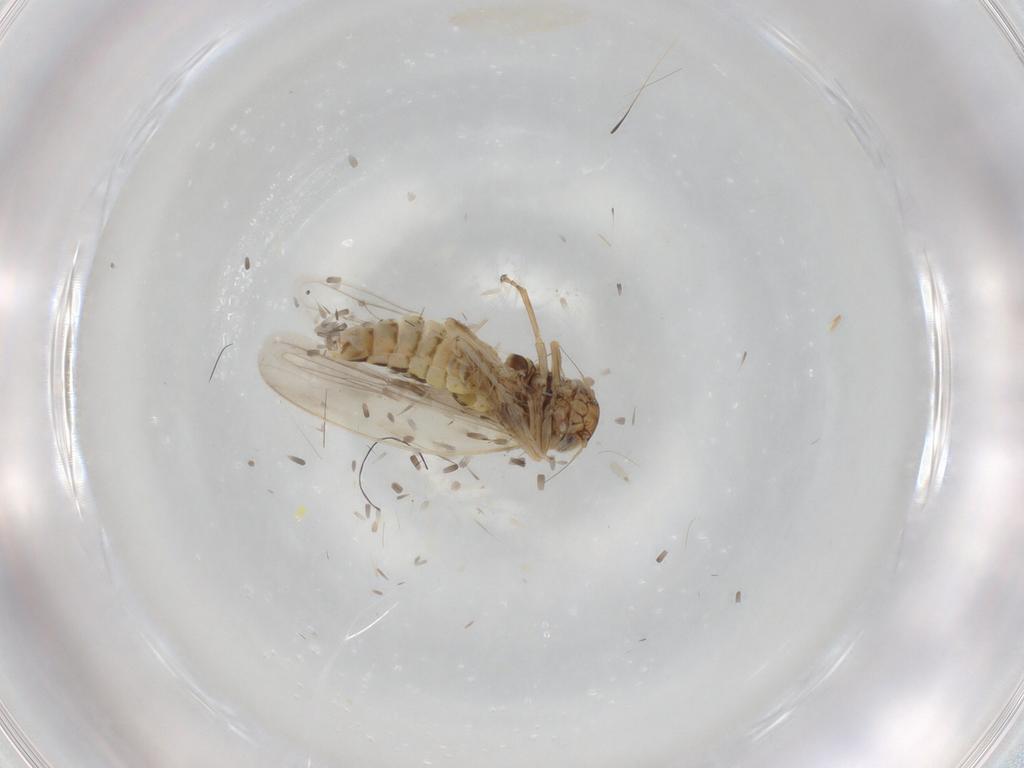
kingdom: Animalia
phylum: Arthropoda
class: Insecta
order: Hemiptera
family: Cicadellidae
